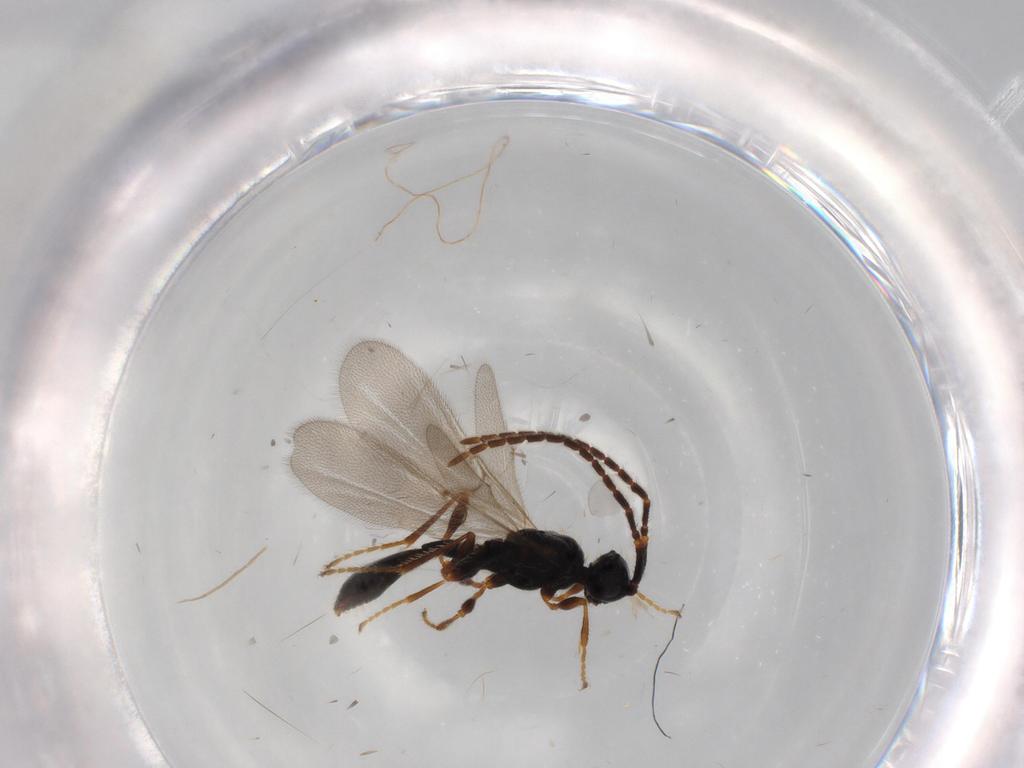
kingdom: Animalia
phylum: Arthropoda
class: Insecta
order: Hymenoptera
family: Diapriidae
